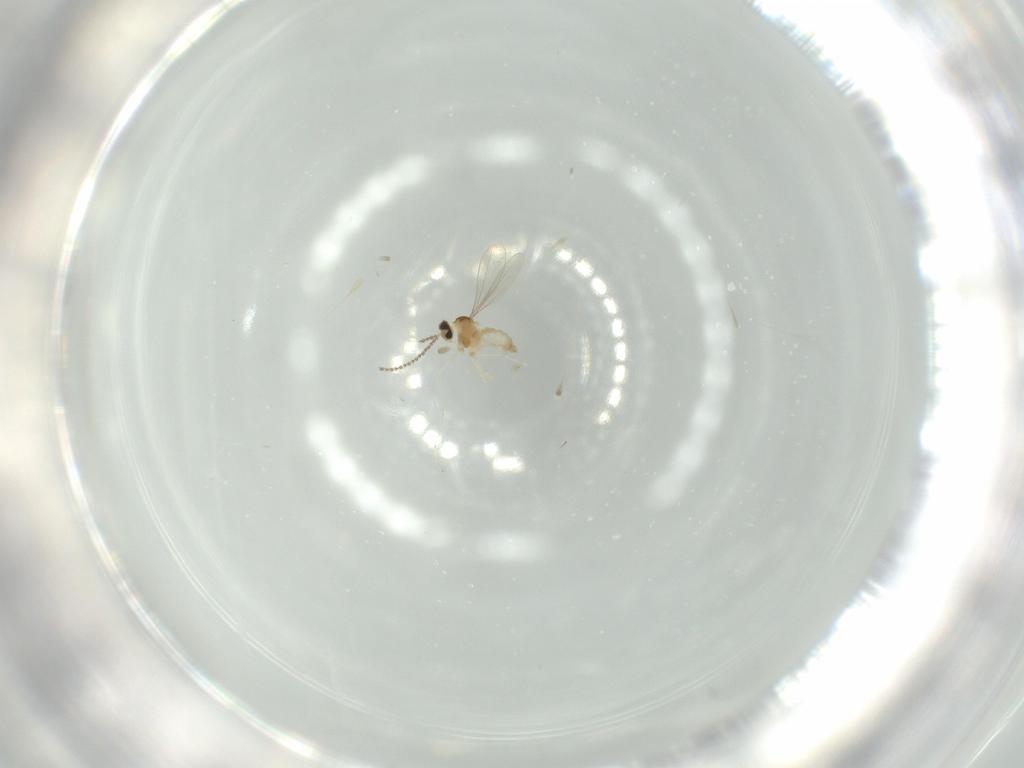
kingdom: Animalia
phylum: Arthropoda
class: Insecta
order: Diptera
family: Cecidomyiidae
